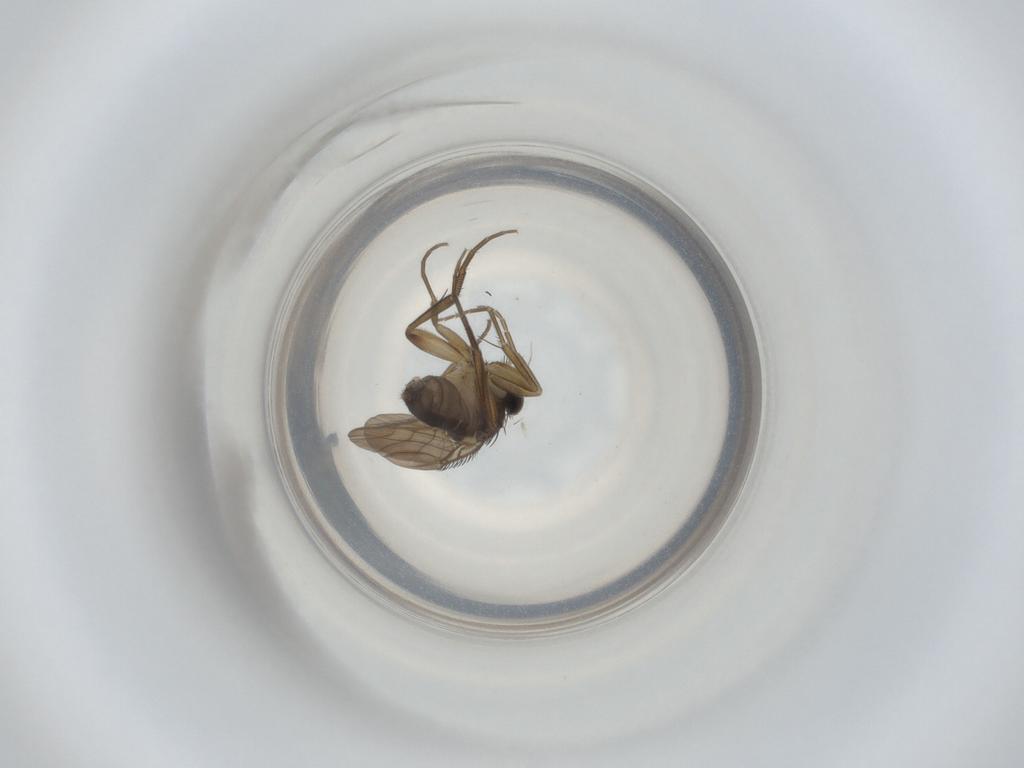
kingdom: Animalia
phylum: Arthropoda
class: Insecta
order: Diptera
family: Phoridae
